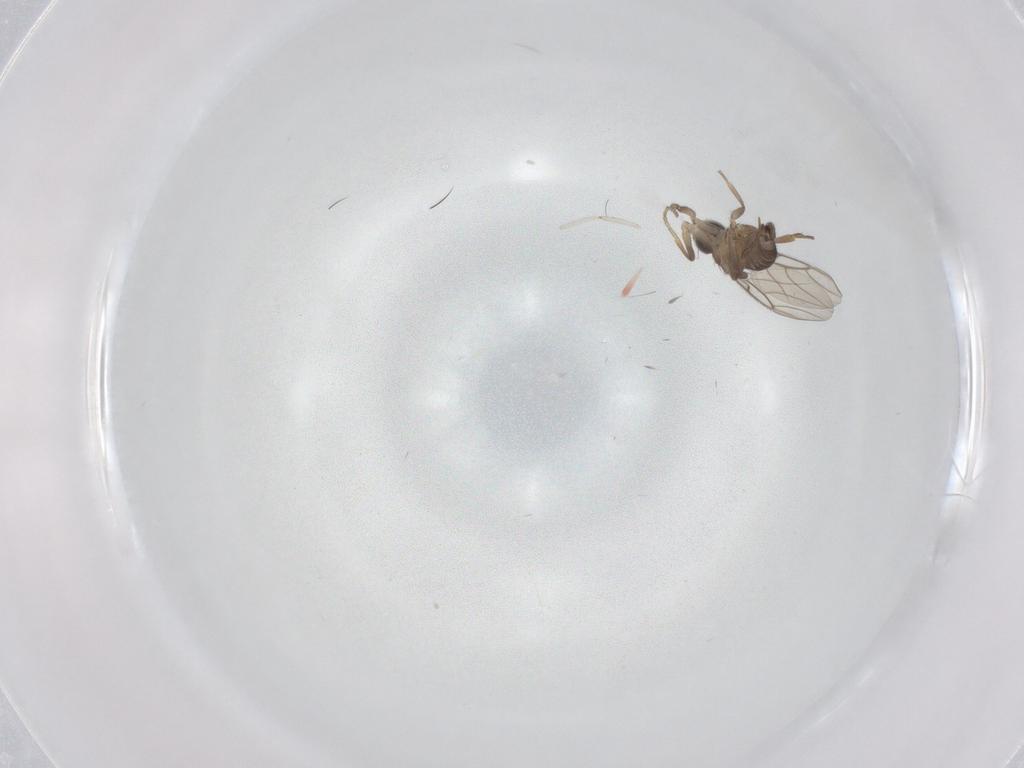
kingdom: Animalia
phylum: Arthropoda
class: Insecta
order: Diptera
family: Phoridae
